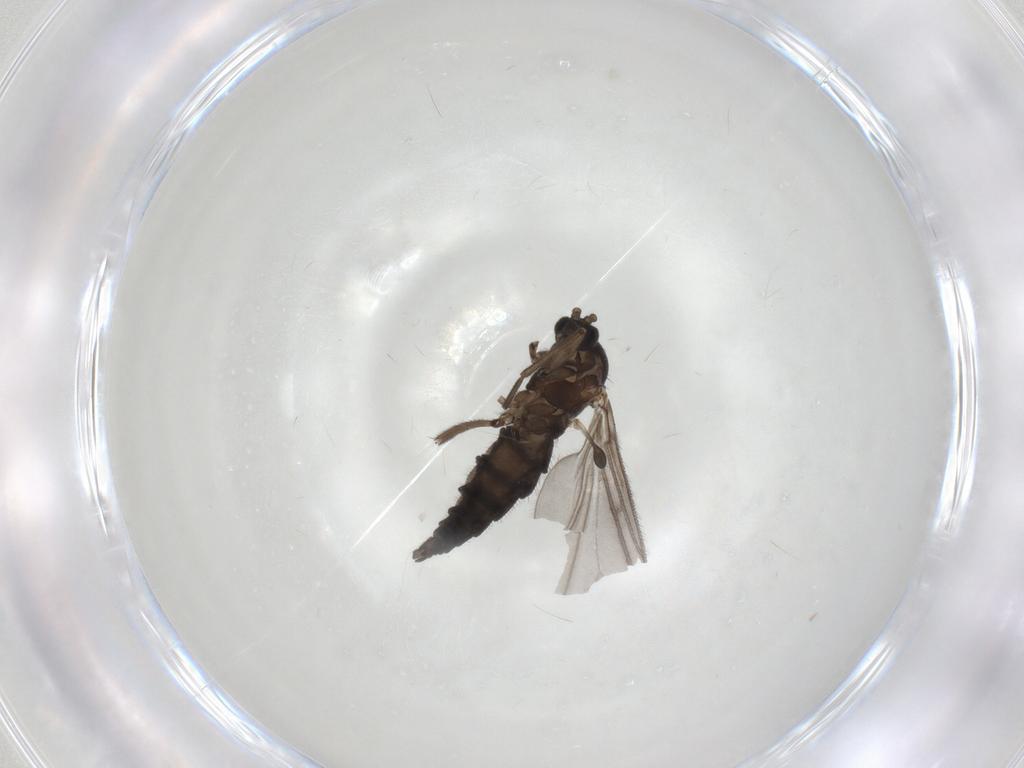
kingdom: Animalia
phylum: Arthropoda
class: Insecta
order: Diptera
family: Sciaridae
